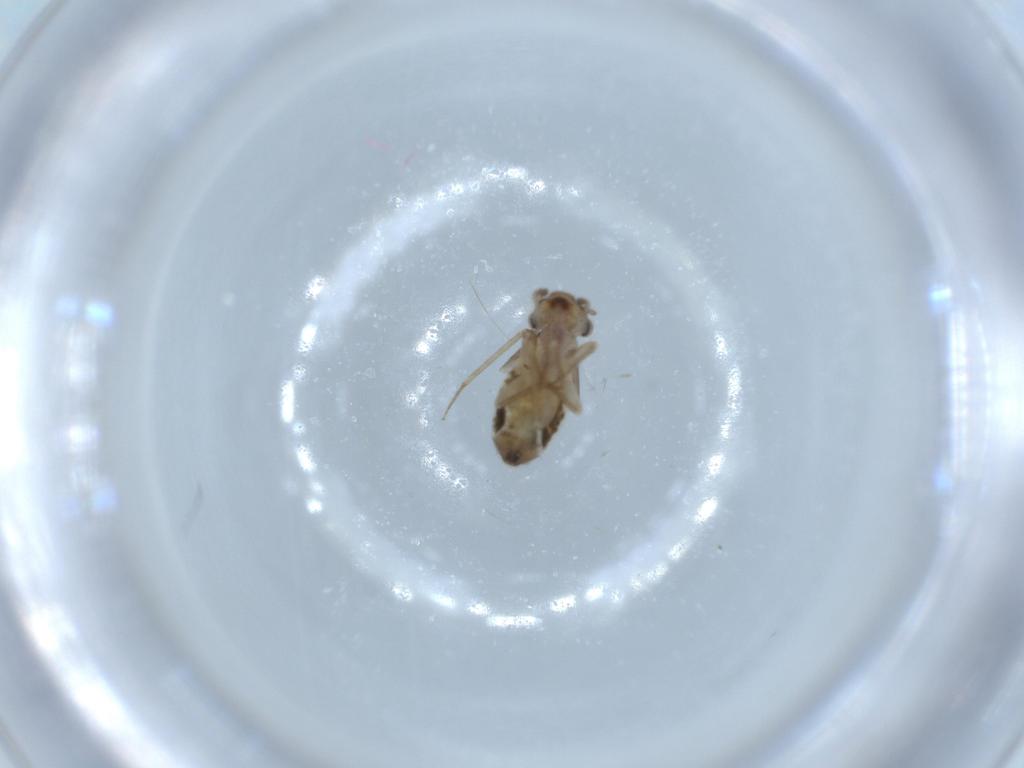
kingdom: Animalia
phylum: Arthropoda
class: Insecta
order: Psocodea
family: Lepidopsocidae
